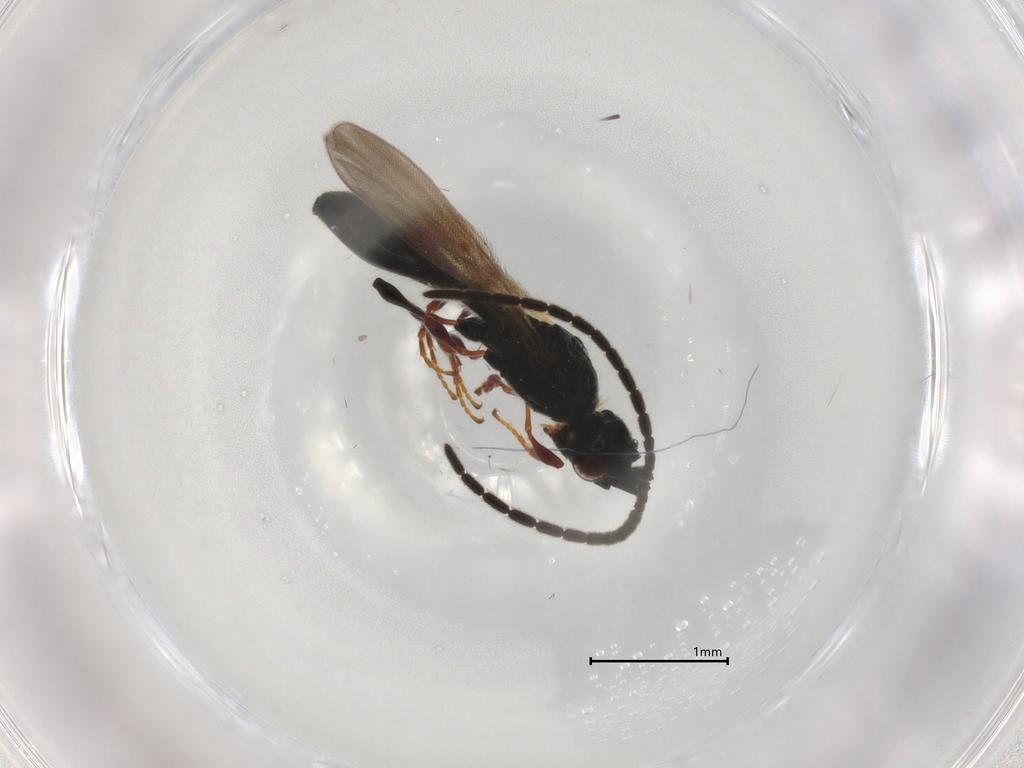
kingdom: Animalia
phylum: Arthropoda
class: Insecta
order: Hymenoptera
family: Diapriidae
